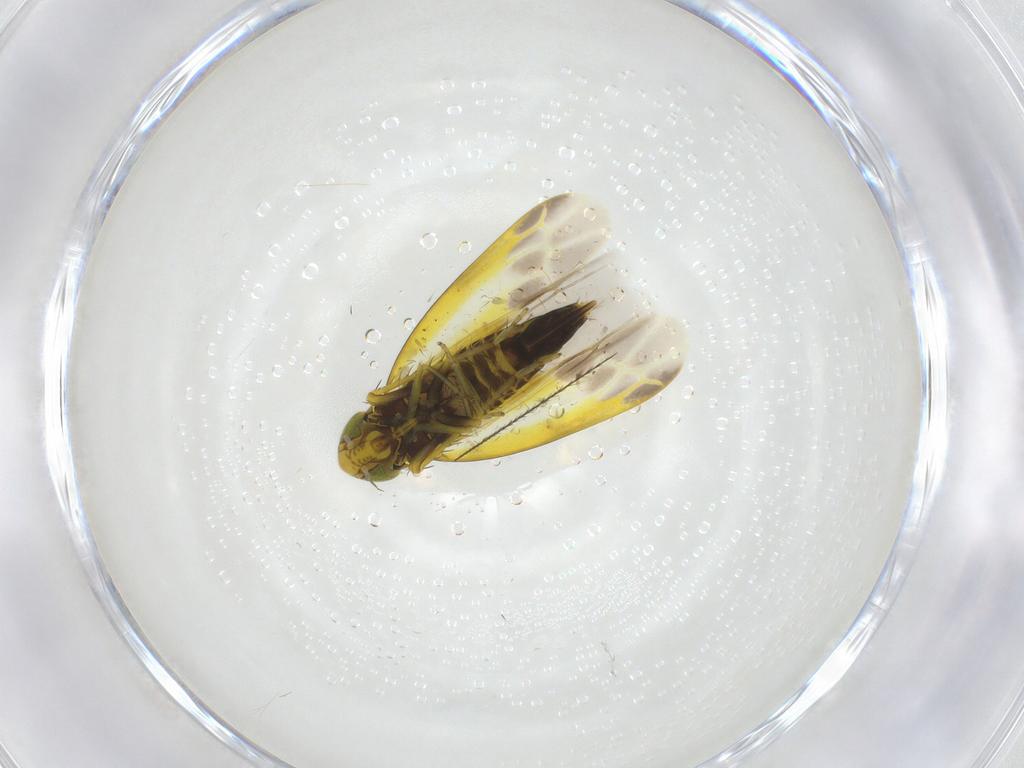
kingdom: Animalia
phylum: Arthropoda
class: Insecta
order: Hemiptera
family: Cicadellidae
